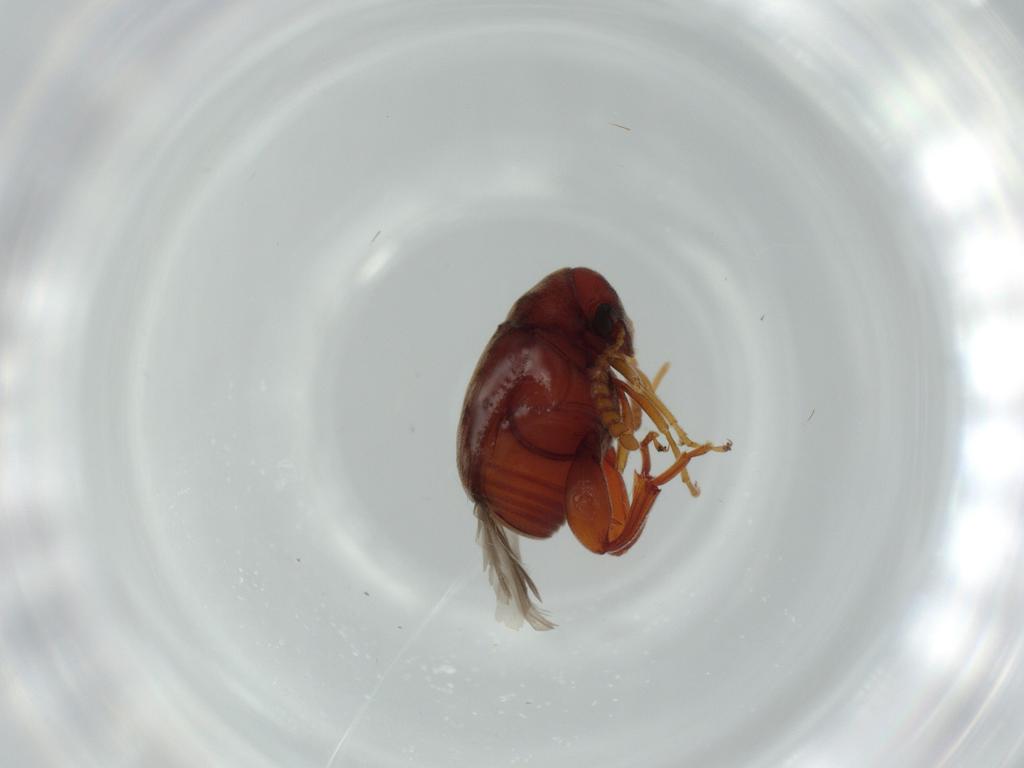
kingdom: Animalia
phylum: Arthropoda
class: Insecta
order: Coleoptera
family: Chrysomelidae
